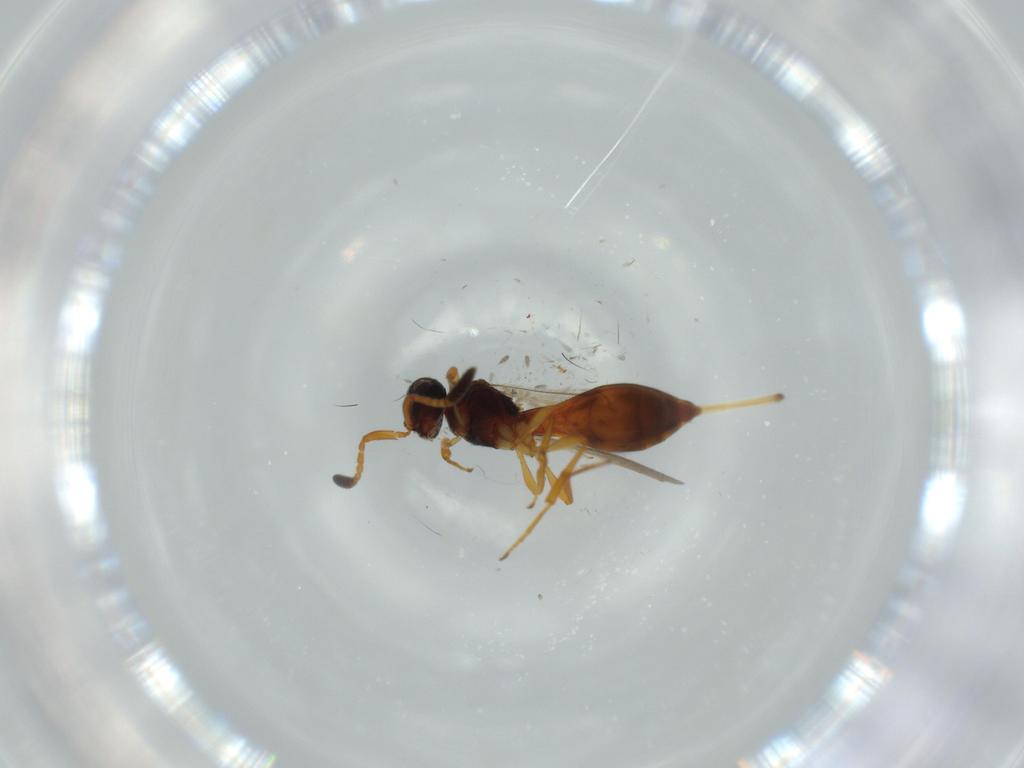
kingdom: Animalia
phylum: Arthropoda
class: Insecta
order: Hymenoptera
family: Scelionidae
